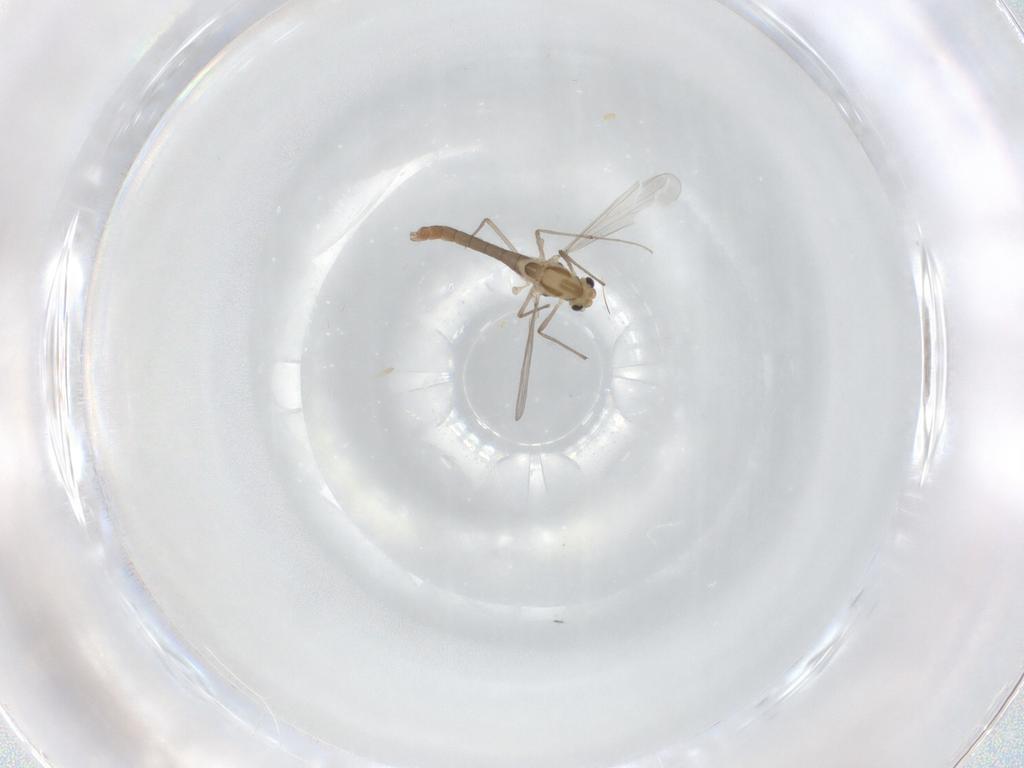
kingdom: Animalia
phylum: Arthropoda
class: Insecta
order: Diptera
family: Chironomidae
